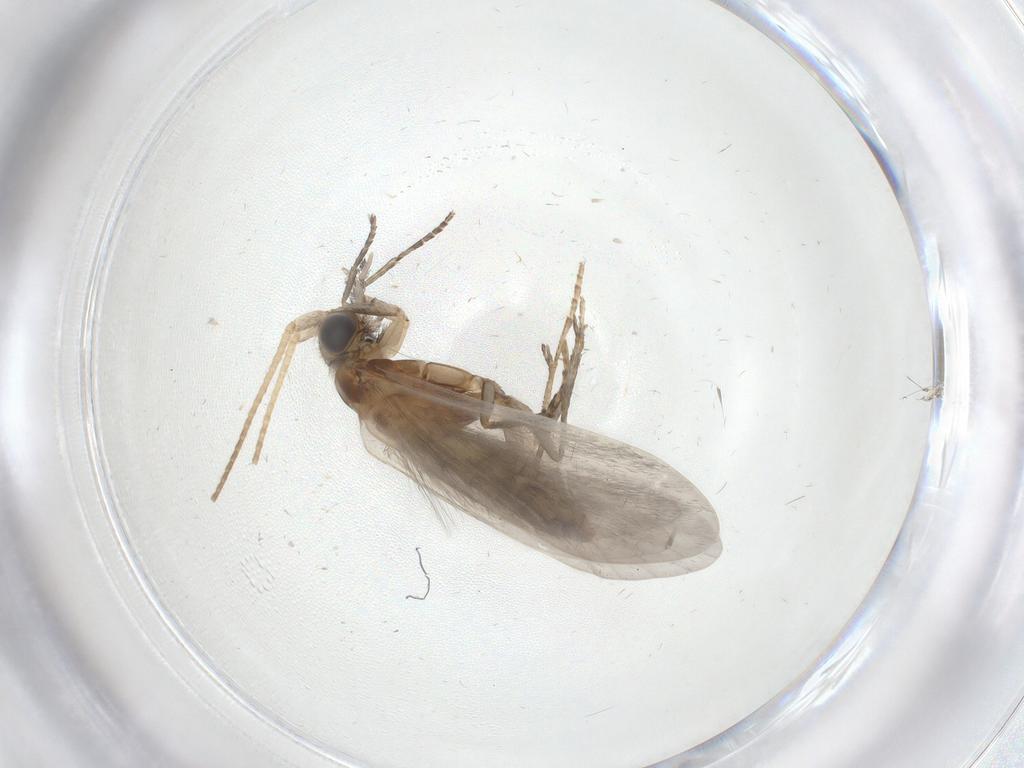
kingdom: Animalia
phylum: Arthropoda
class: Insecta
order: Trichoptera
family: Helicopsychidae
